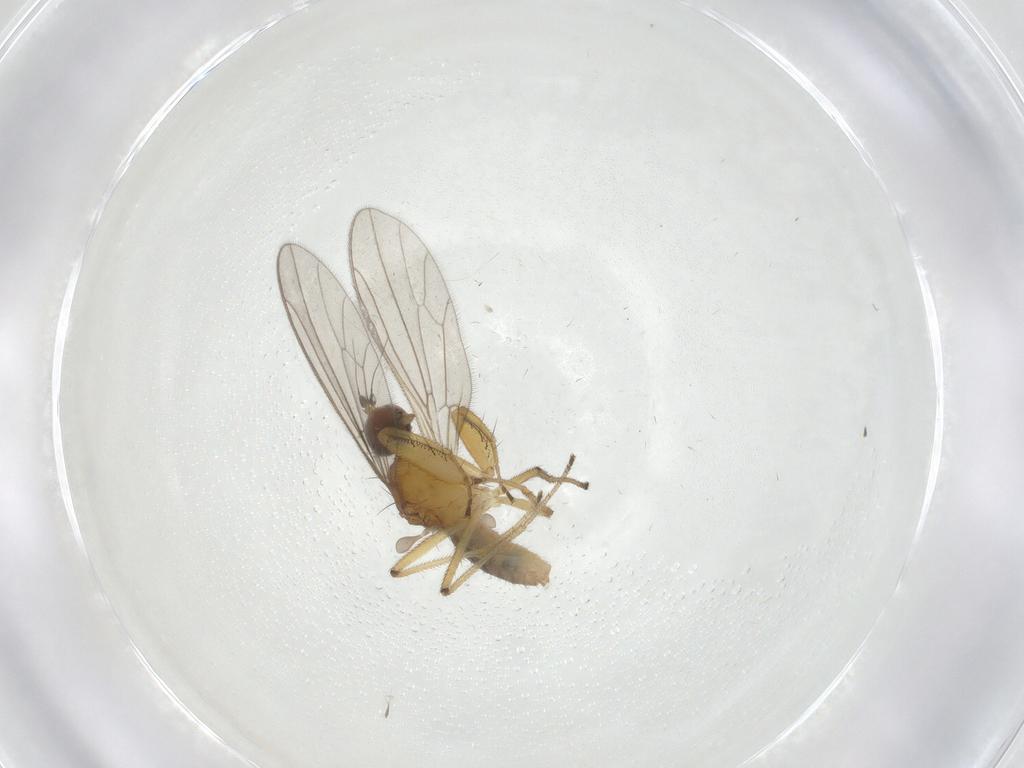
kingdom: Animalia
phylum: Arthropoda
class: Insecta
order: Diptera
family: Empididae
